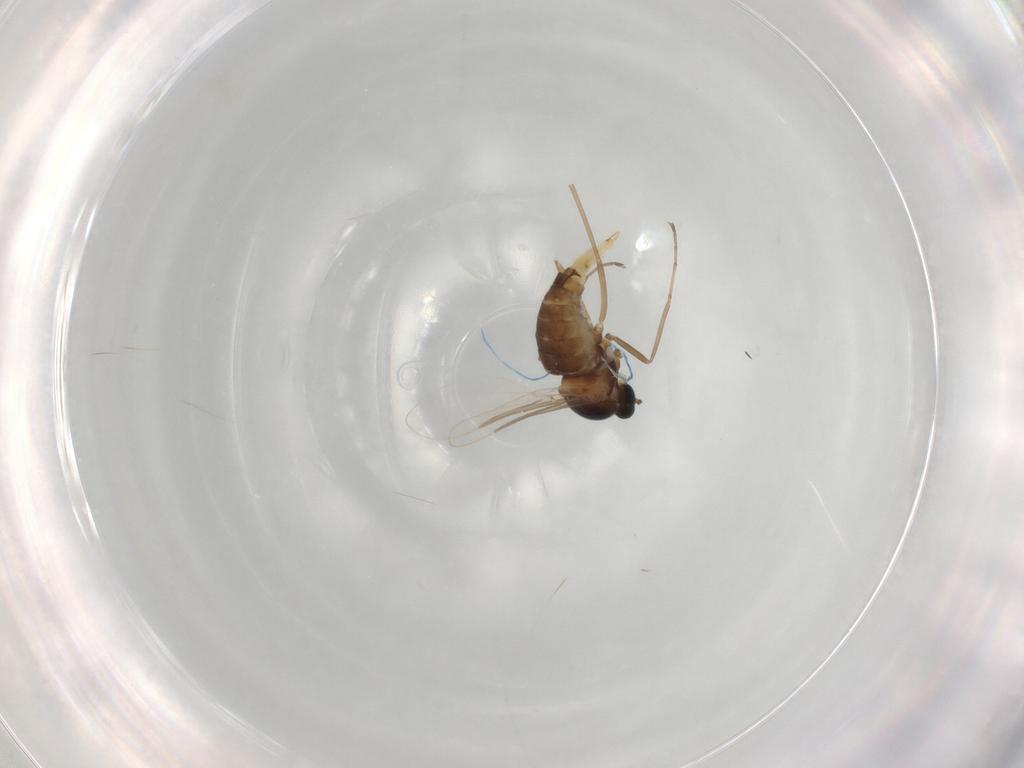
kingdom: Animalia
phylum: Arthropoda
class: Insecta
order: Diptera
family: Cecidomyiidae
